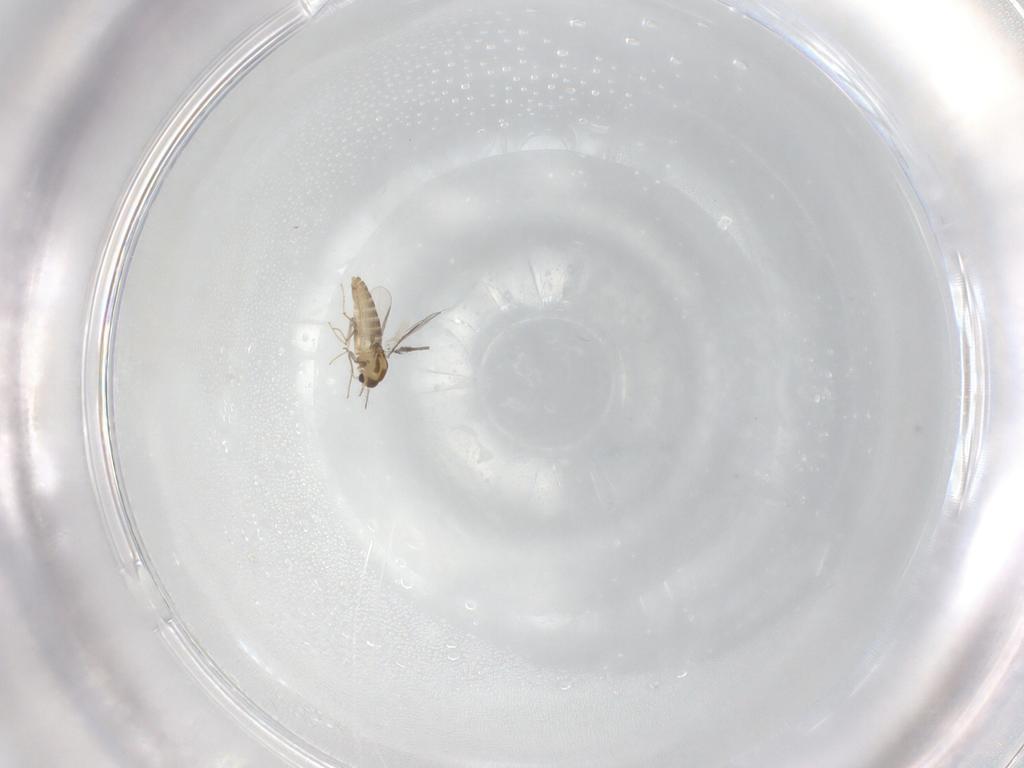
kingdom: Animalia
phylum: Arthropoda
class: Insecta
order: Diptera
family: Chironomidae
